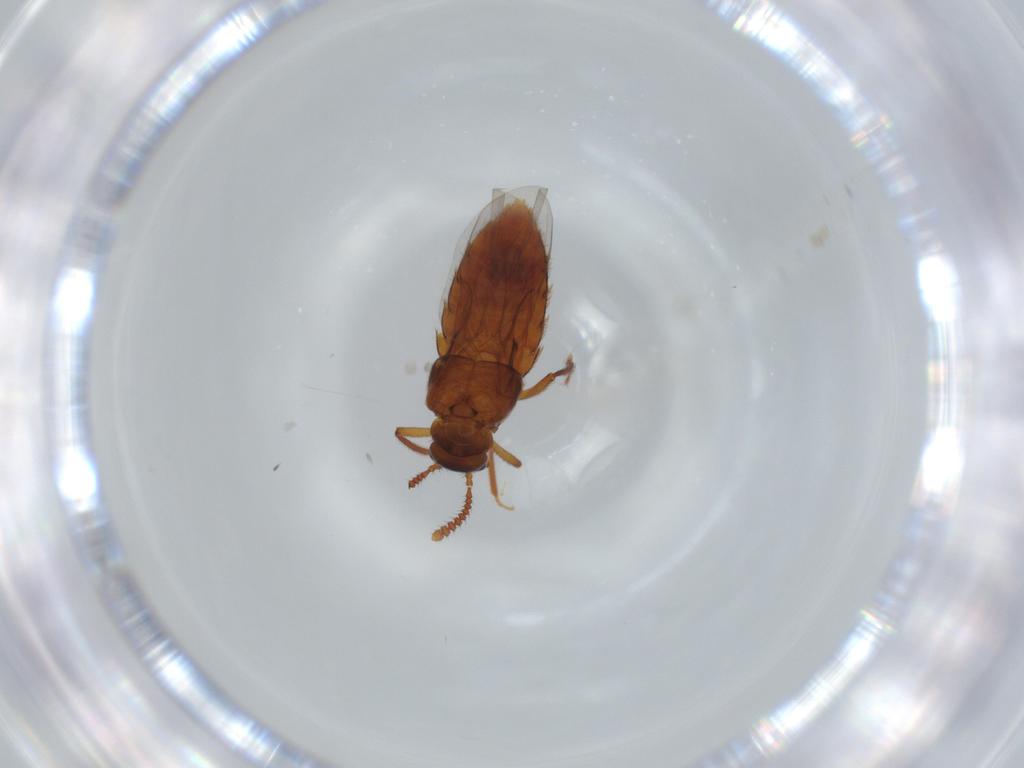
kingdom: Animalia
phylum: Arthropoda
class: Insecta
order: Coleoptera
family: Staphylinidae
